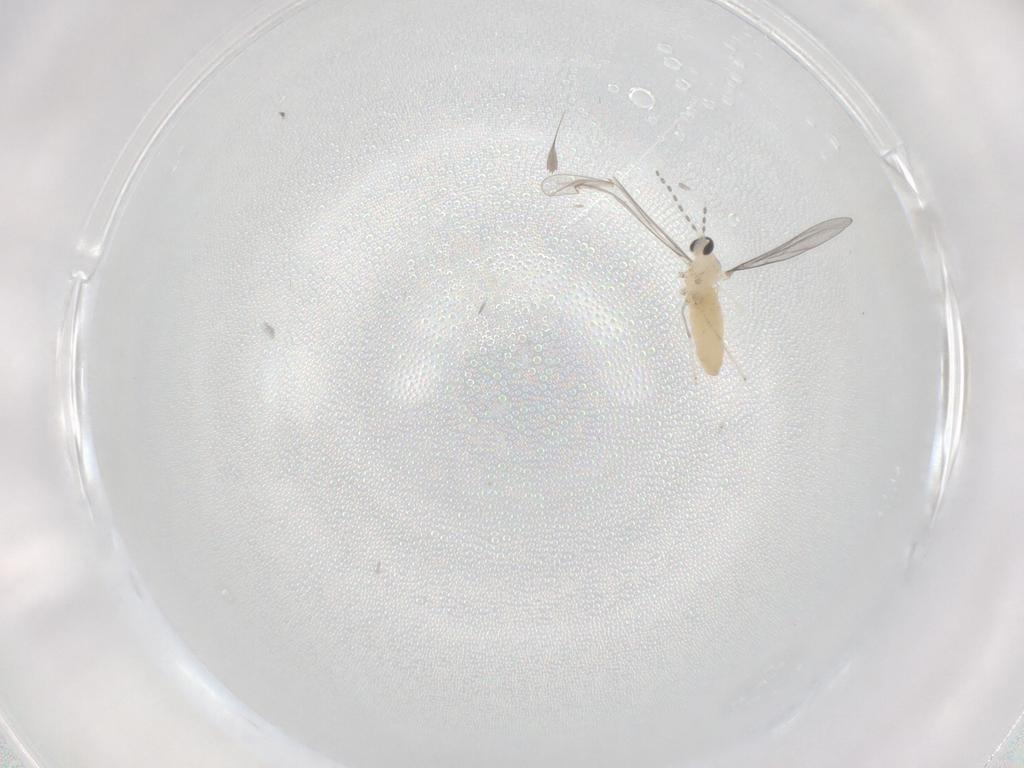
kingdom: Animalia
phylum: Arthropoda
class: Insecta
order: Diptera
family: Cecidomyiidae
